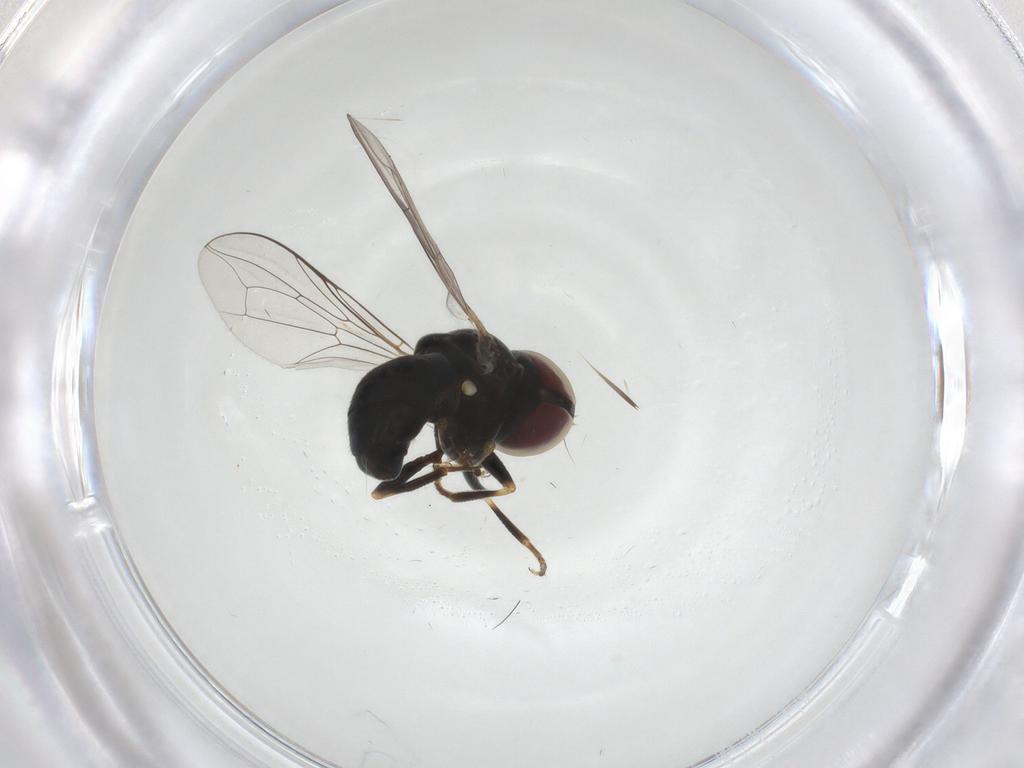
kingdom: Animalia
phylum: Arthropoda
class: Insecta
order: Diptera
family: Pipunculidae
